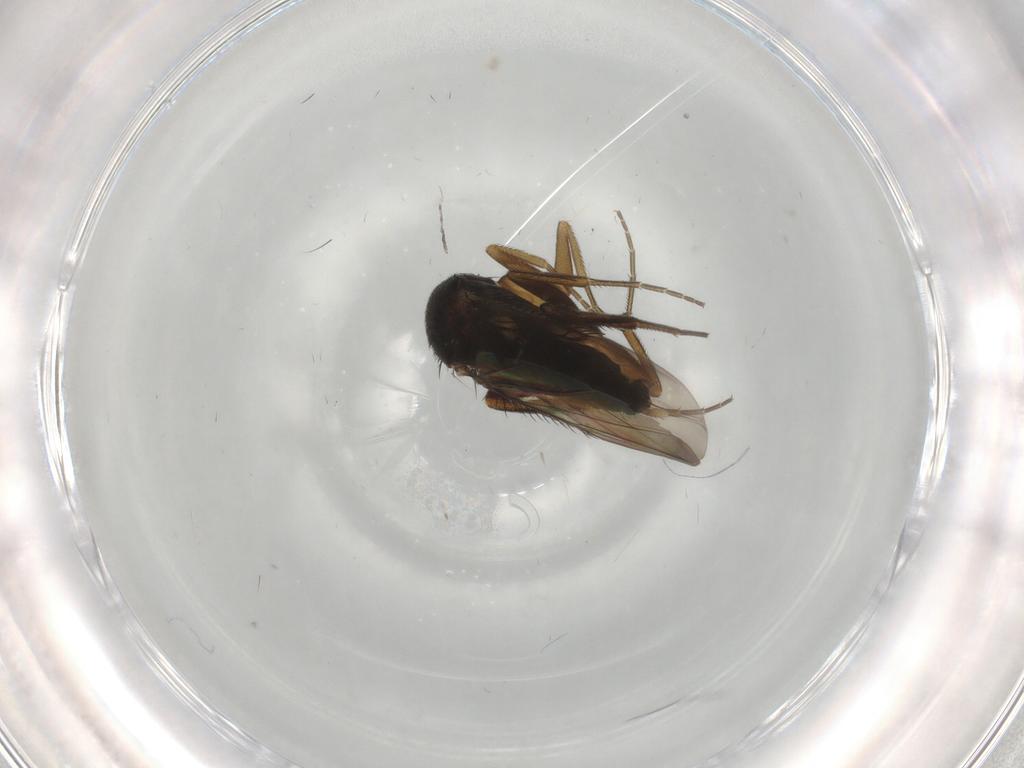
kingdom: Animalia
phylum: Arthropoda
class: Insecta
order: Diptera
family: Phoridae
